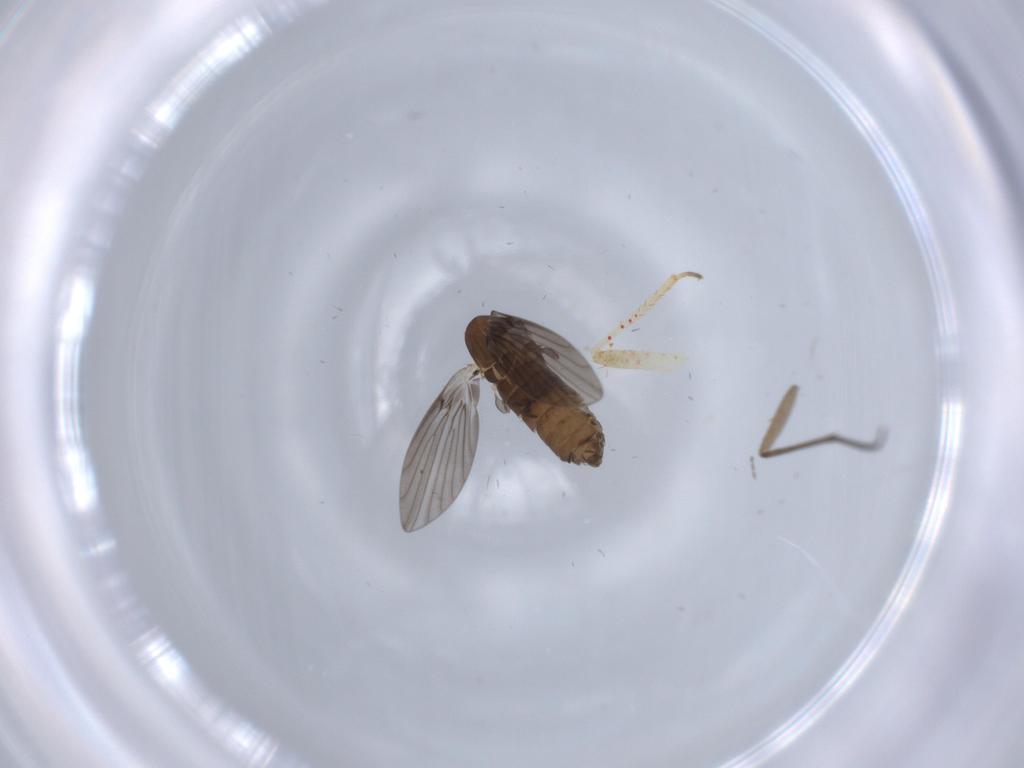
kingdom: Animalia
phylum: Arthropoda
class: Insecta
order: Diptera
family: Psychodidae
